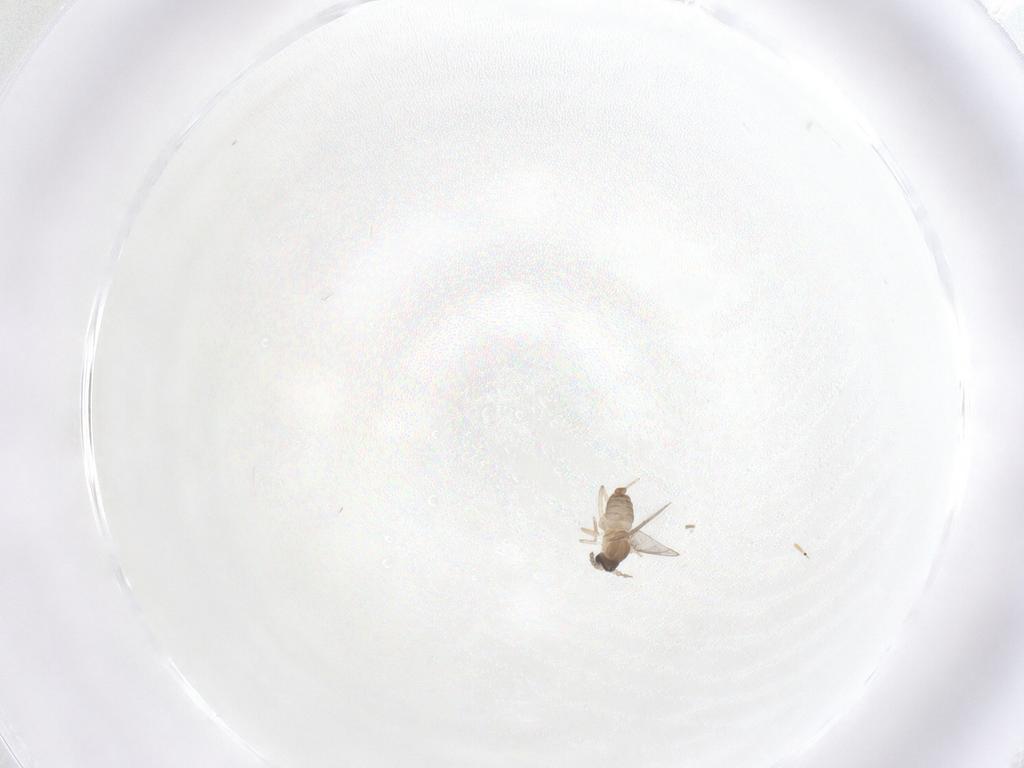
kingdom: Animalia
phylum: Arthropoda
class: Insecta
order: Diptera
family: Cecidomyiidae
